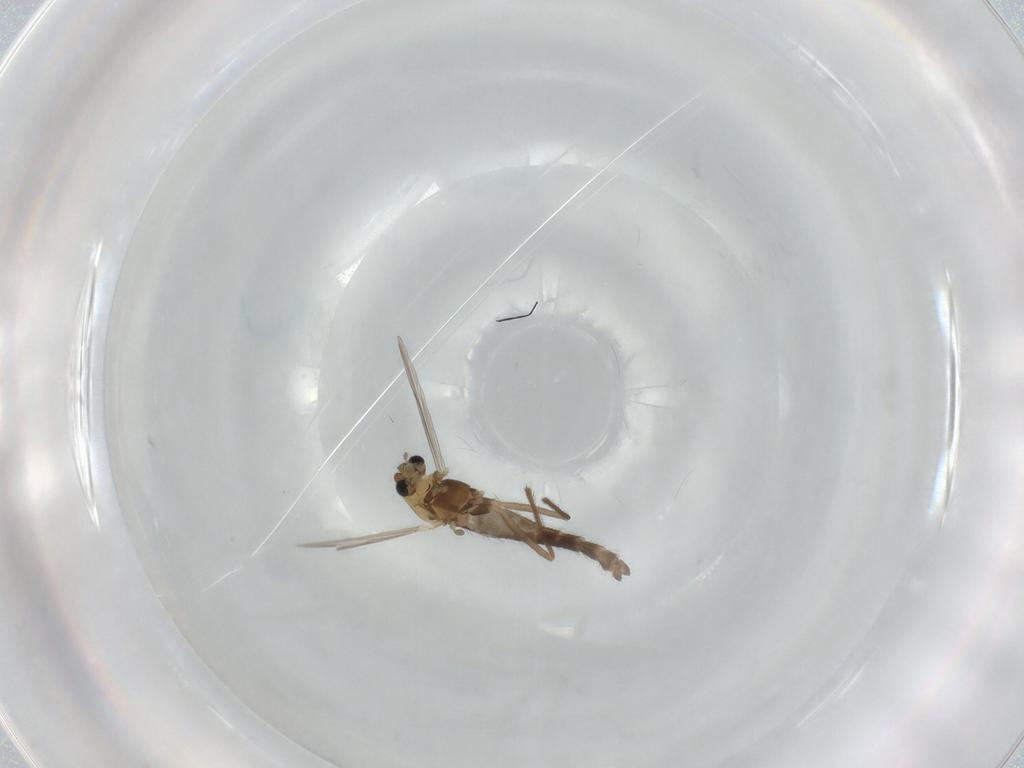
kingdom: Animalia
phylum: Arthropoda
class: Insecta
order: Diptera
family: Chironomidae
